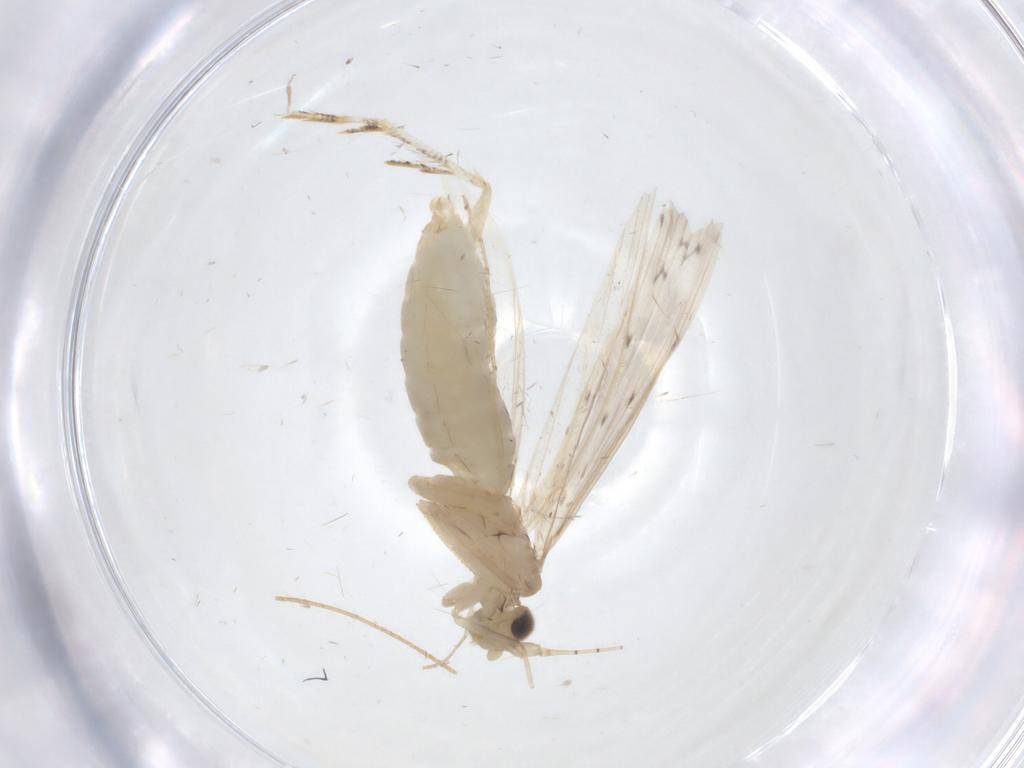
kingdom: Animalia
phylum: Arthropoda
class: Insecta
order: Trichoptera
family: Leptoceridae
